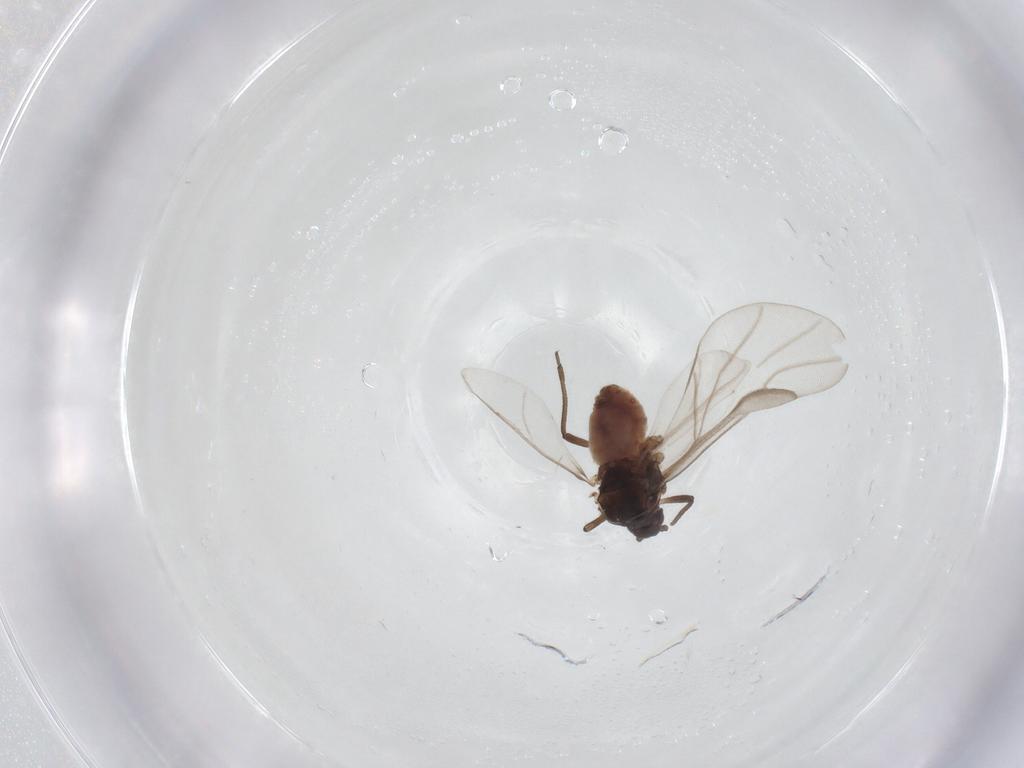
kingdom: Animalia
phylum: Arthropoda
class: Insecta
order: Hemiptera
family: Aphididae
